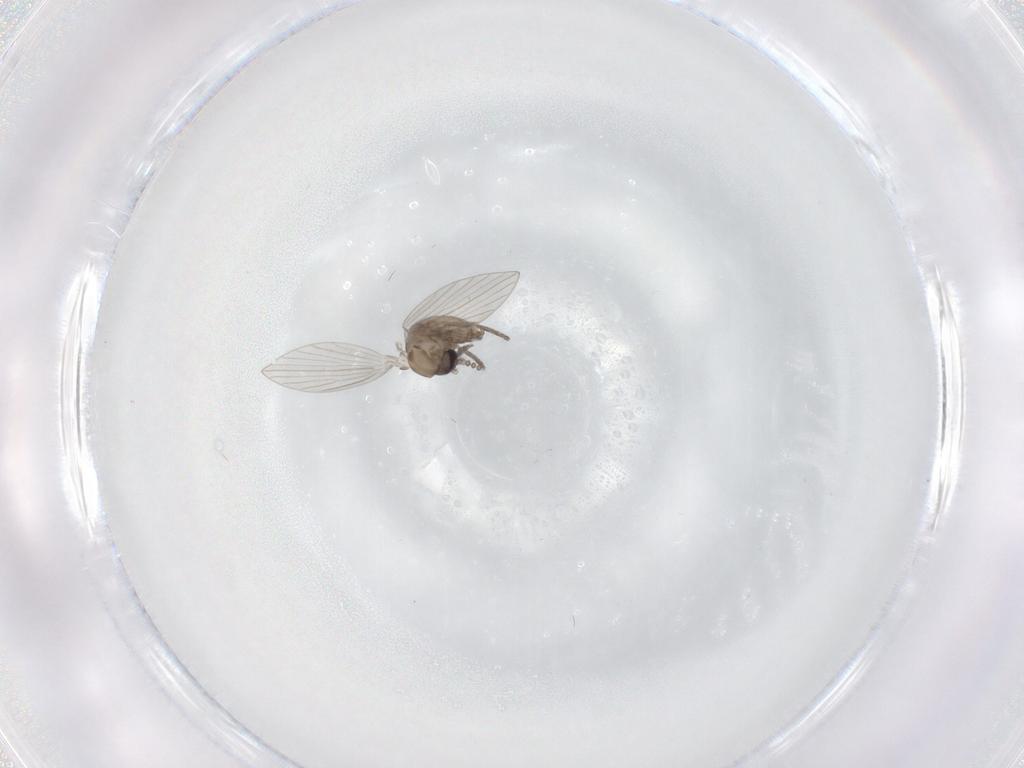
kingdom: Animalia
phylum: Arthropoda
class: Insecta
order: Diptera
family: Psychodidae
